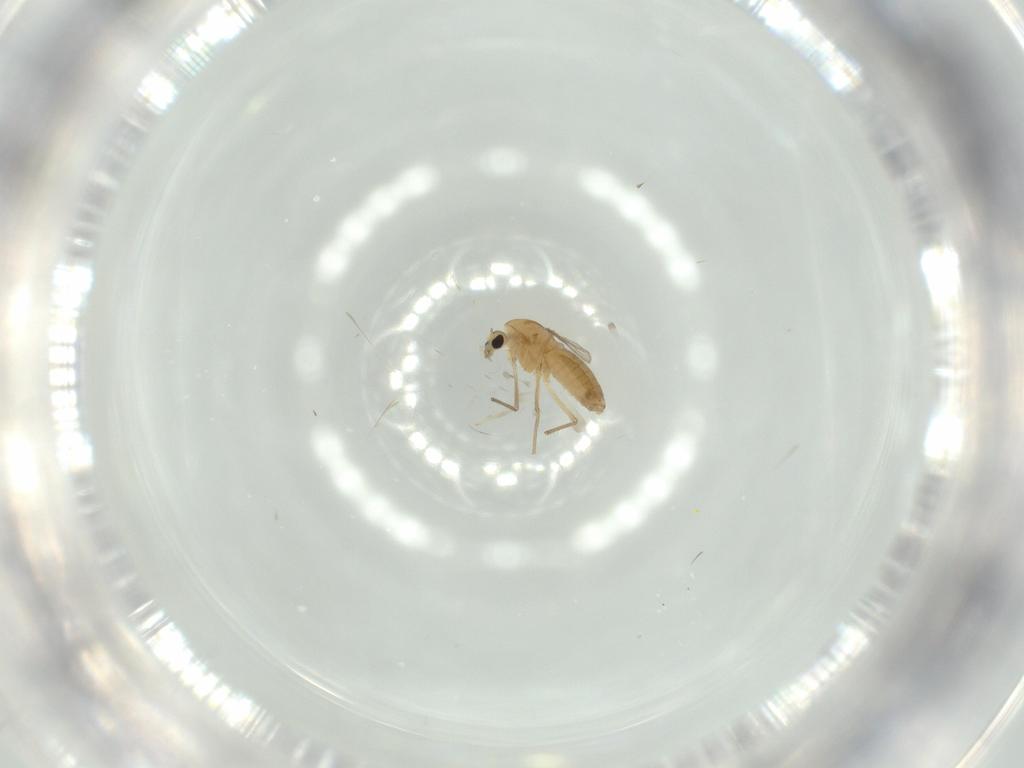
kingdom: Animalia
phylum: Arthropoda
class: Insecta
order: Diptera
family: Chironomidae
